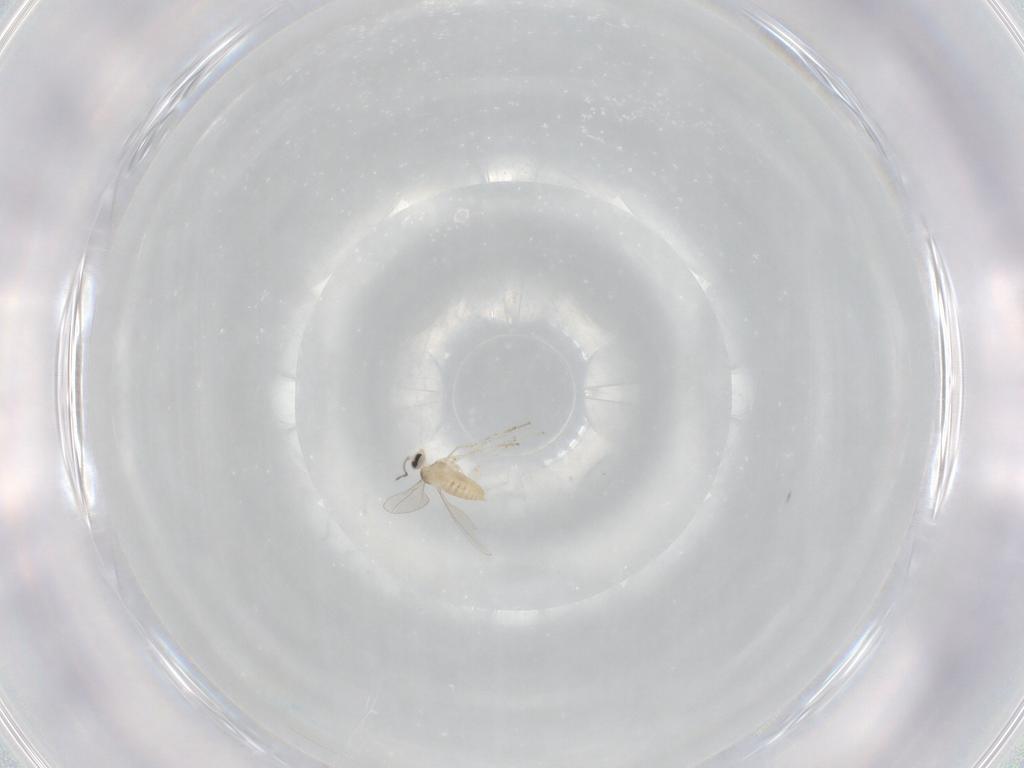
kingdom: Animalia
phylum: Arthropoda
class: Insecta
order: Diptera
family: Cecidomyiidae
